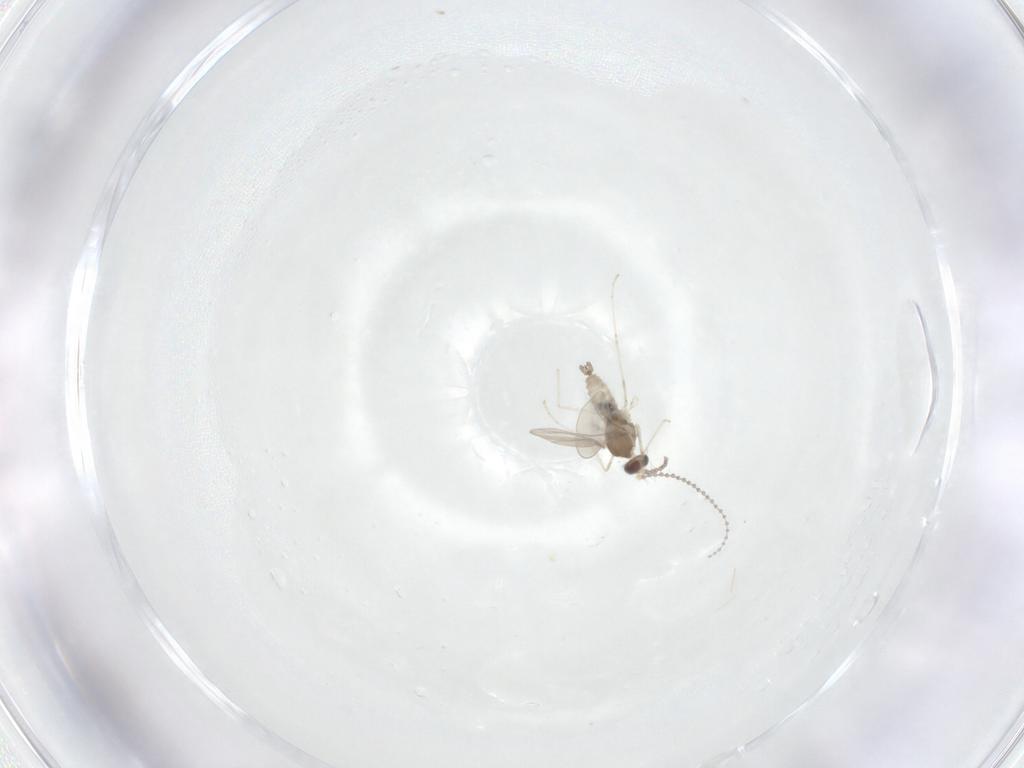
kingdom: Animalia
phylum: Arthropoda
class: Insecta
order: Diptera
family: Cecidomyiidae
